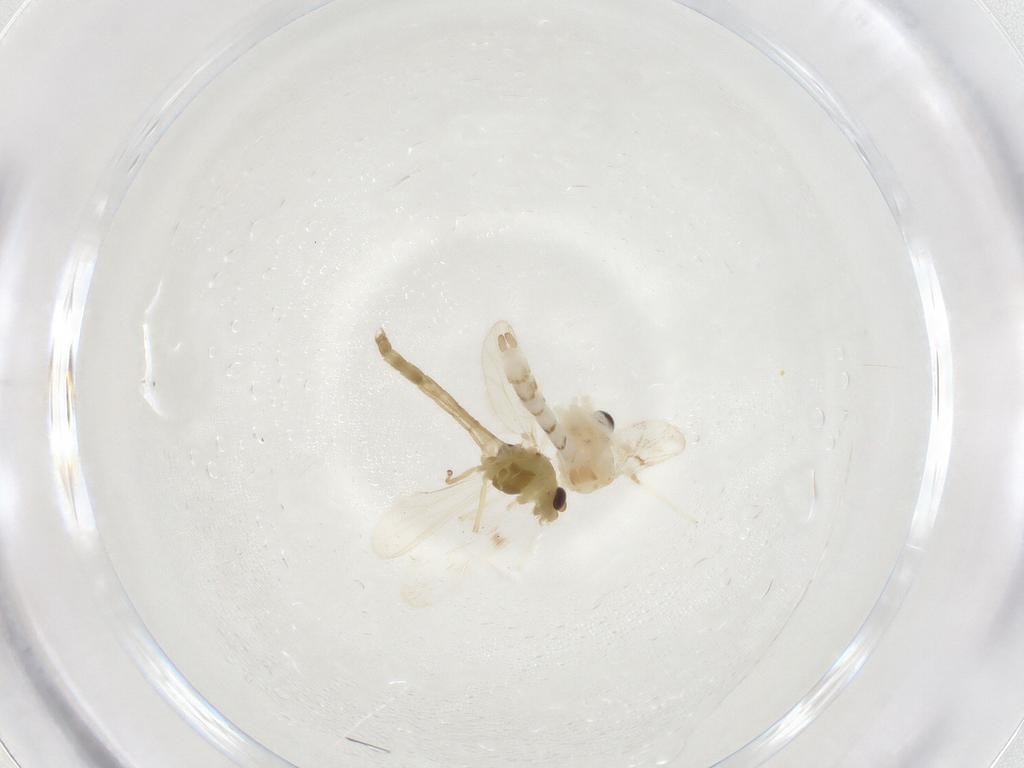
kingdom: Animalia
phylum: Arthropoda
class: Insecta
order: Diptera
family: Chironomidae
